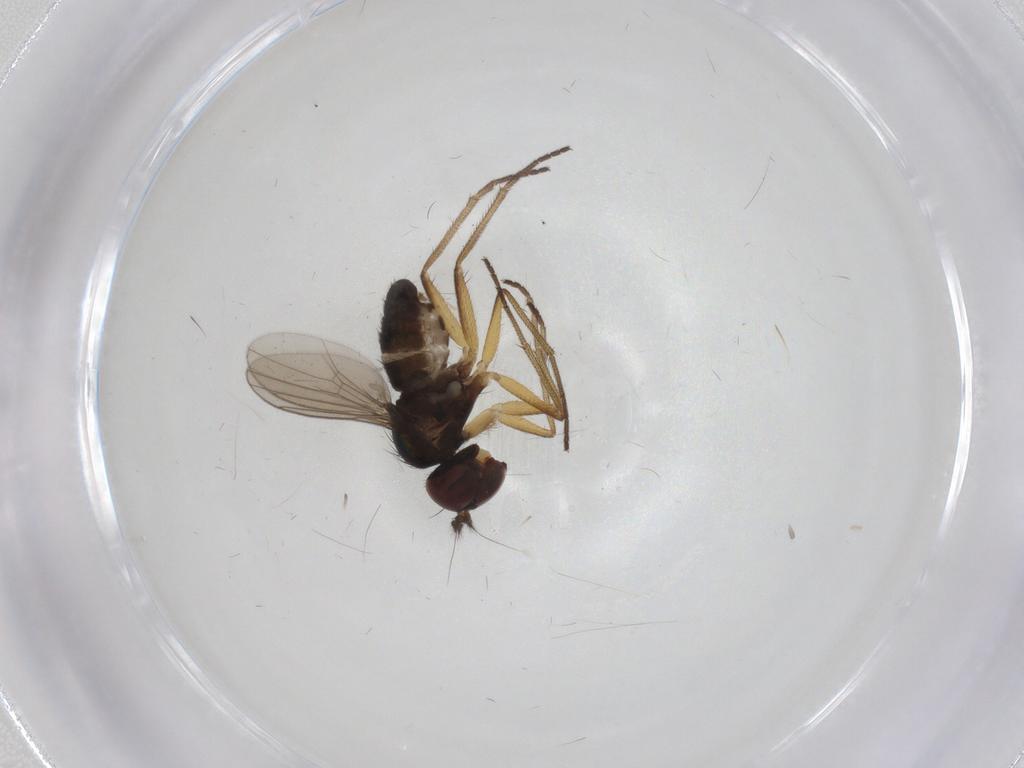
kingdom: Animalia
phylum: Arthropoda
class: Insecta
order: Diptera
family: Dolichopodidae
